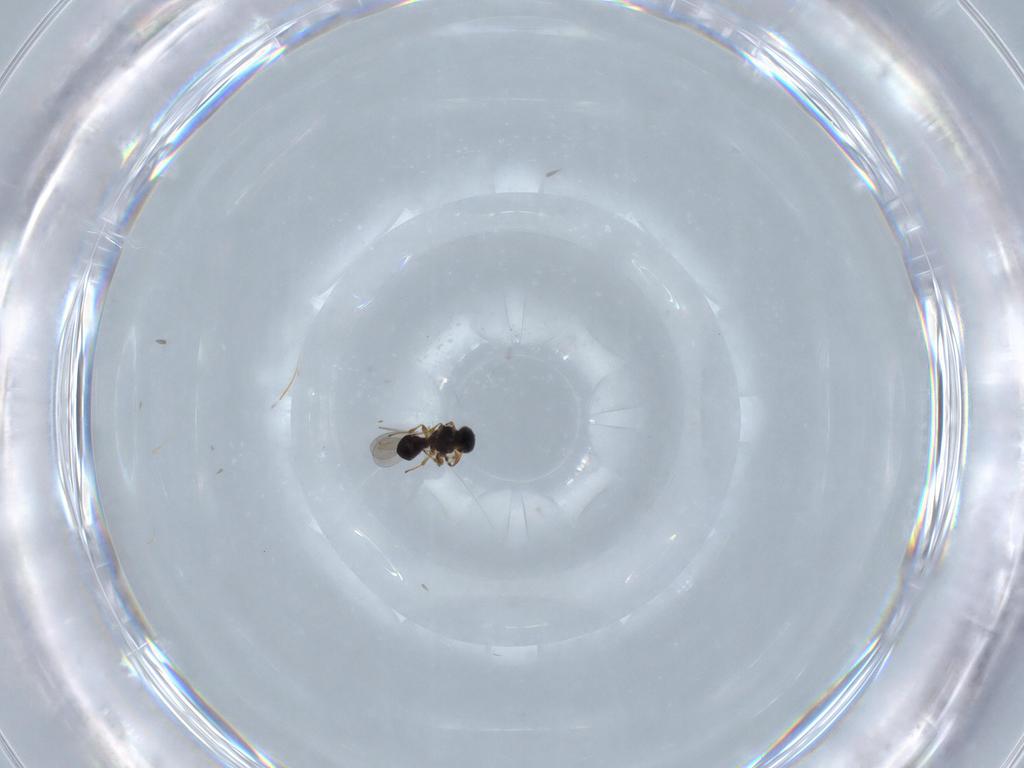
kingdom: Animalia
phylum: Arthropoda
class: Insecta
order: Hymenoptera
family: Platygastridae
